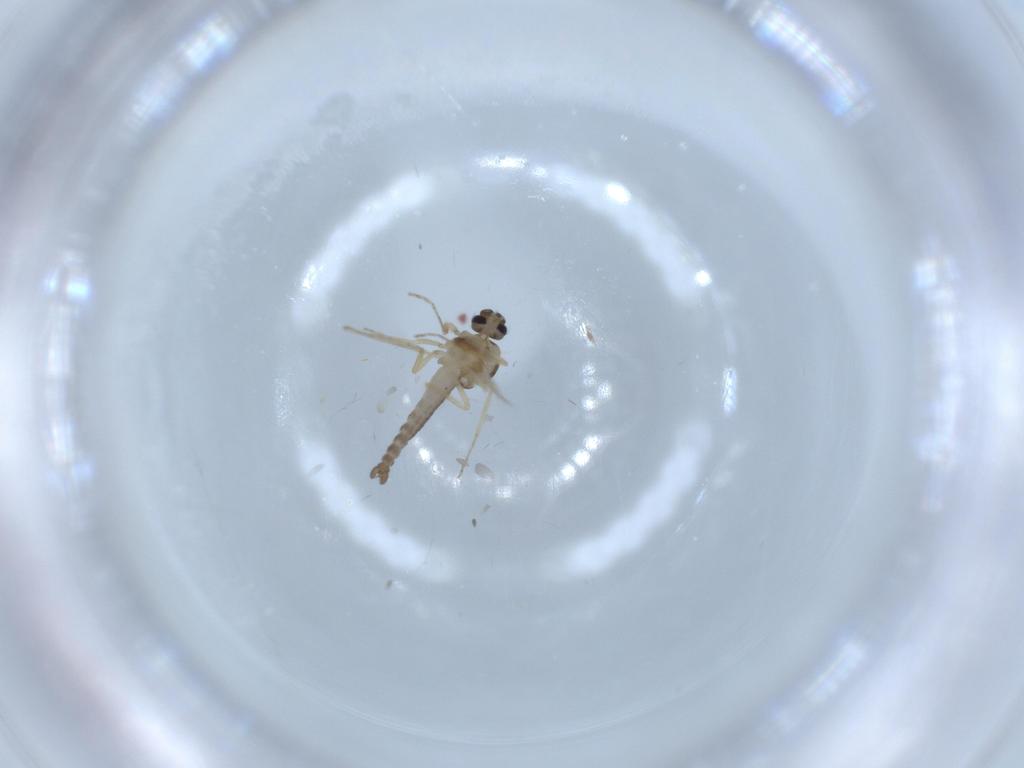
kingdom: Animalia
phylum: Arthropoda
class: Insecta
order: Diptera
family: Ceratopogonidae
